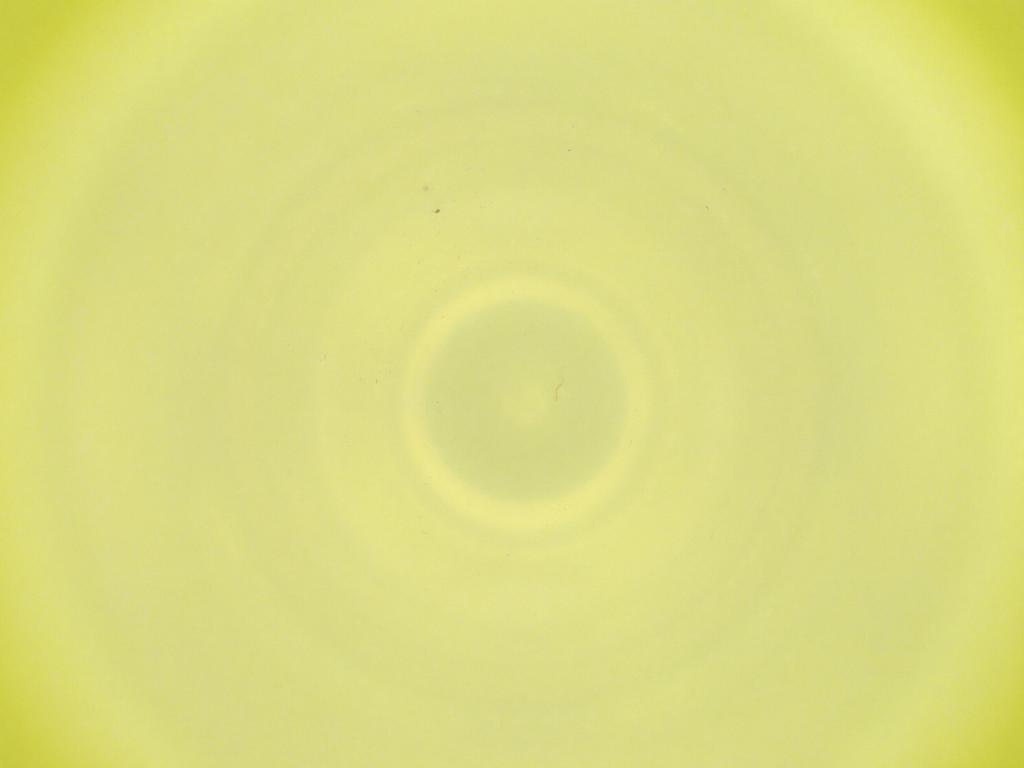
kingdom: Animalia
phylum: Arthropoda
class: Insecta
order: Diptera
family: Cecidomyiidae
